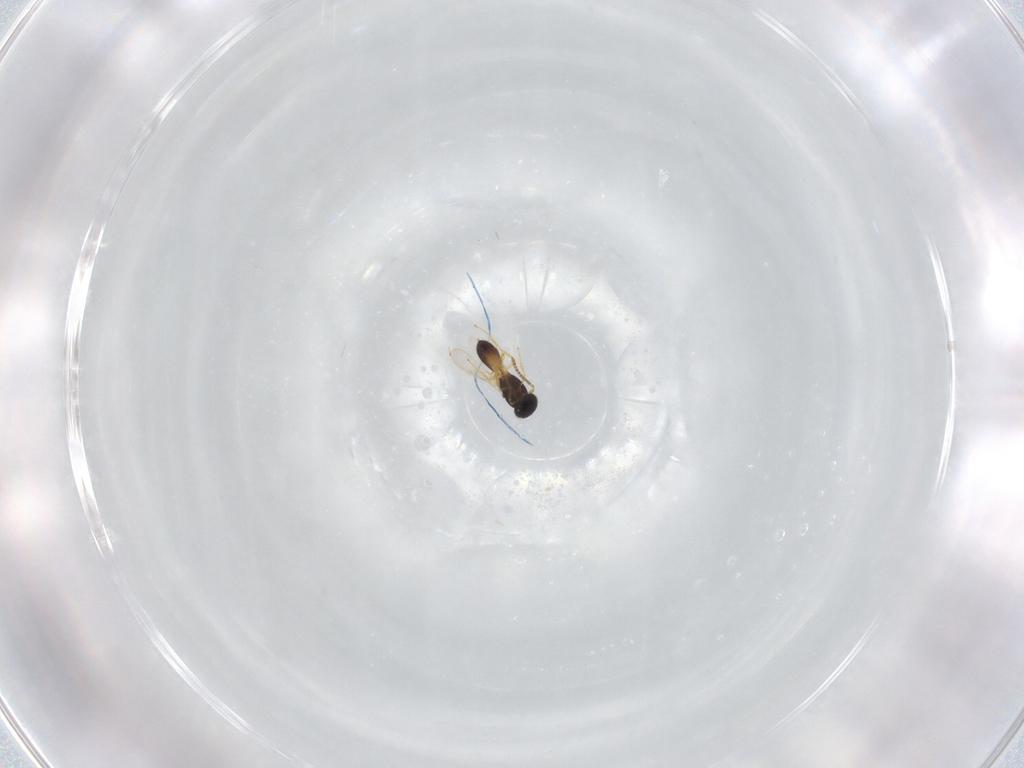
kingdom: Animalia
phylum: Arthropoda
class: Insecta
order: Hymenoptera
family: Scelionidae
